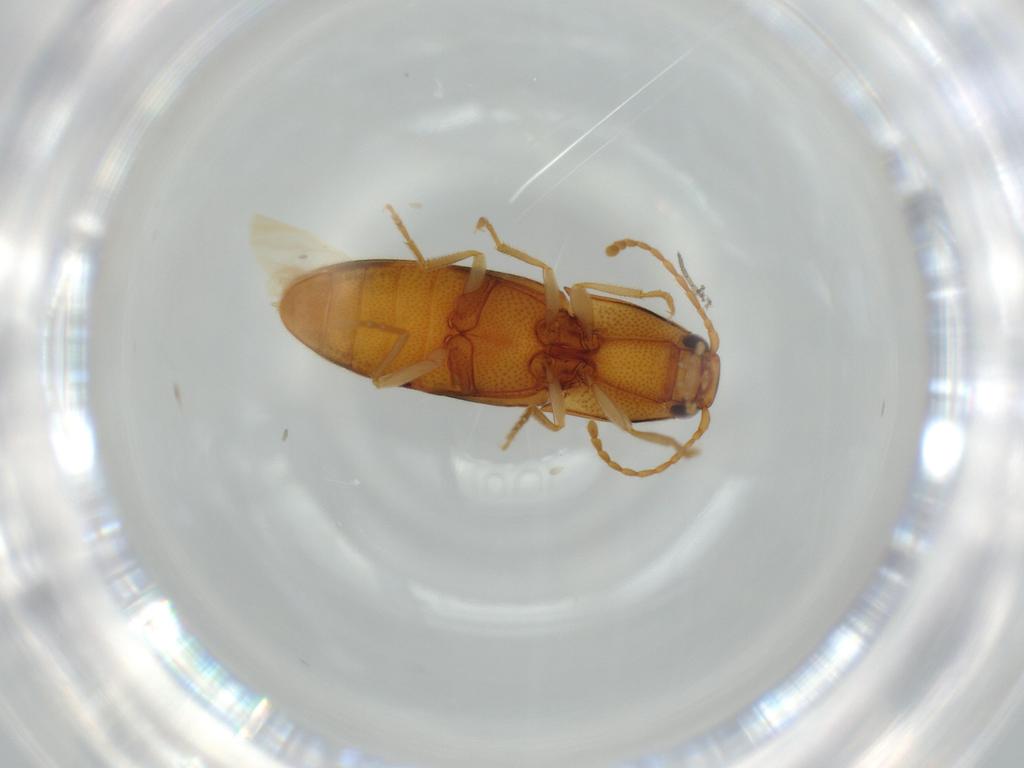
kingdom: Animalia
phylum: Arthropoda
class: Insecta
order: Coleoptera
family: Elateridae
